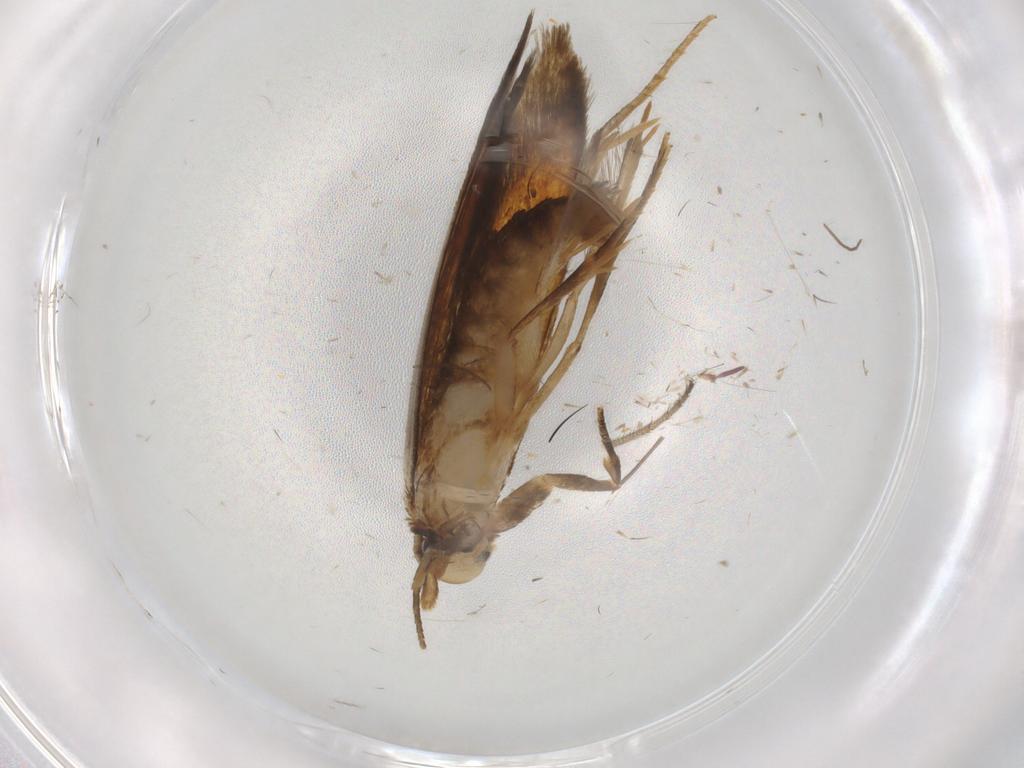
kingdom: Animalia
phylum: Arthropoda
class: Insecta
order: Lepidoptera
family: Tineidae
